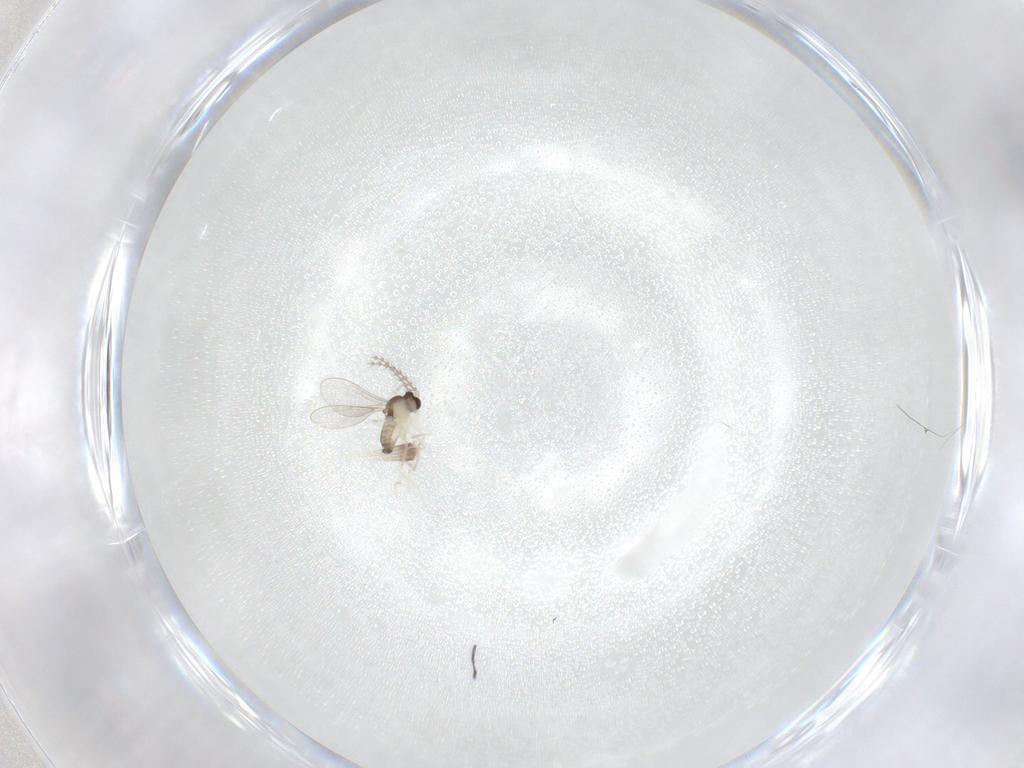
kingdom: Animalia
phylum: Arthropoda
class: Insecta
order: Diptera
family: Cecidomyiidae
